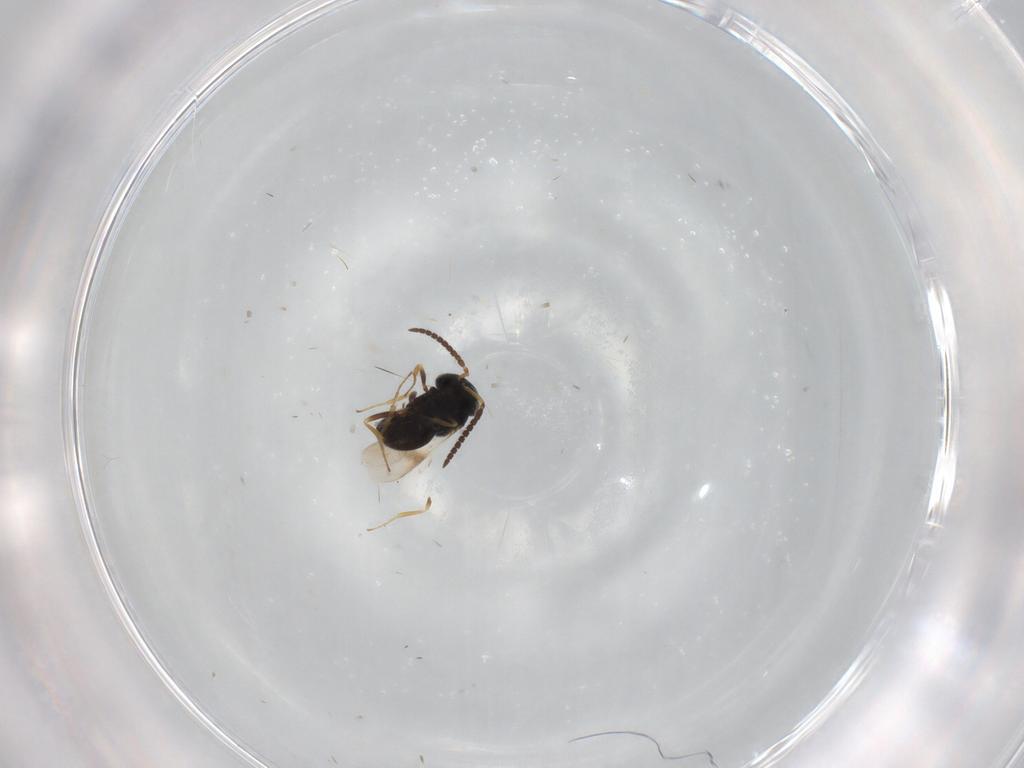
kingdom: Animalia
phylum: Arthropoda
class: Insecta
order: Hymenoptera
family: Scelionidae
